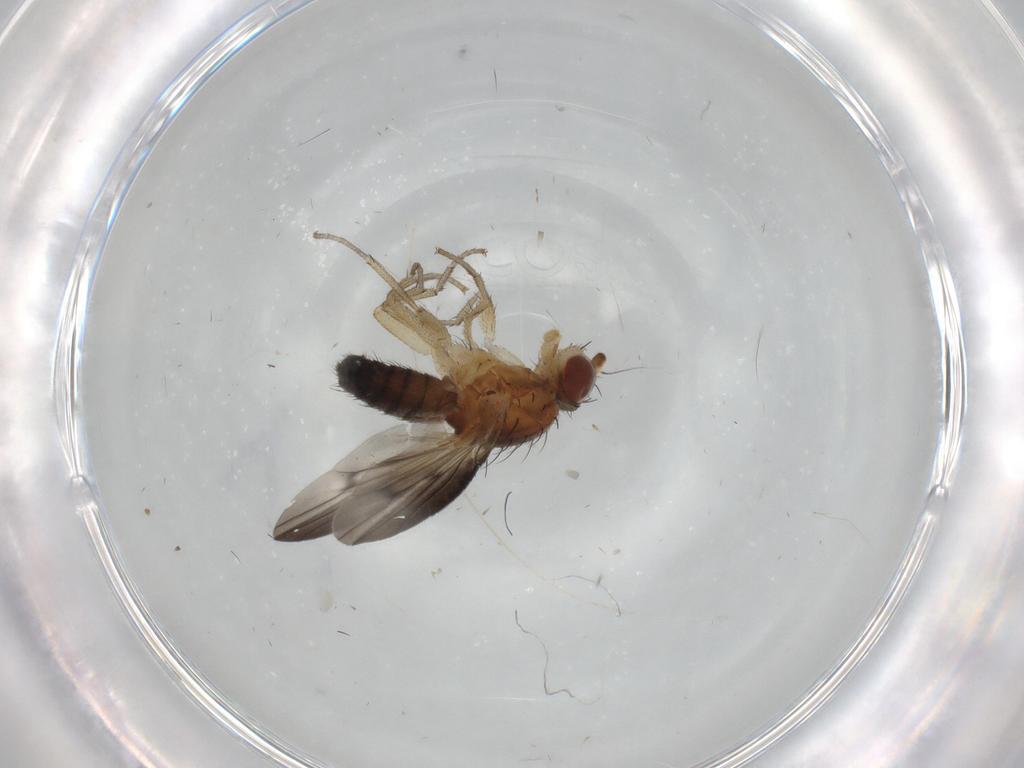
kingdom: Animalia
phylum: Arthropoda
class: Insecta
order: Diptera
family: Heleomyzidae
